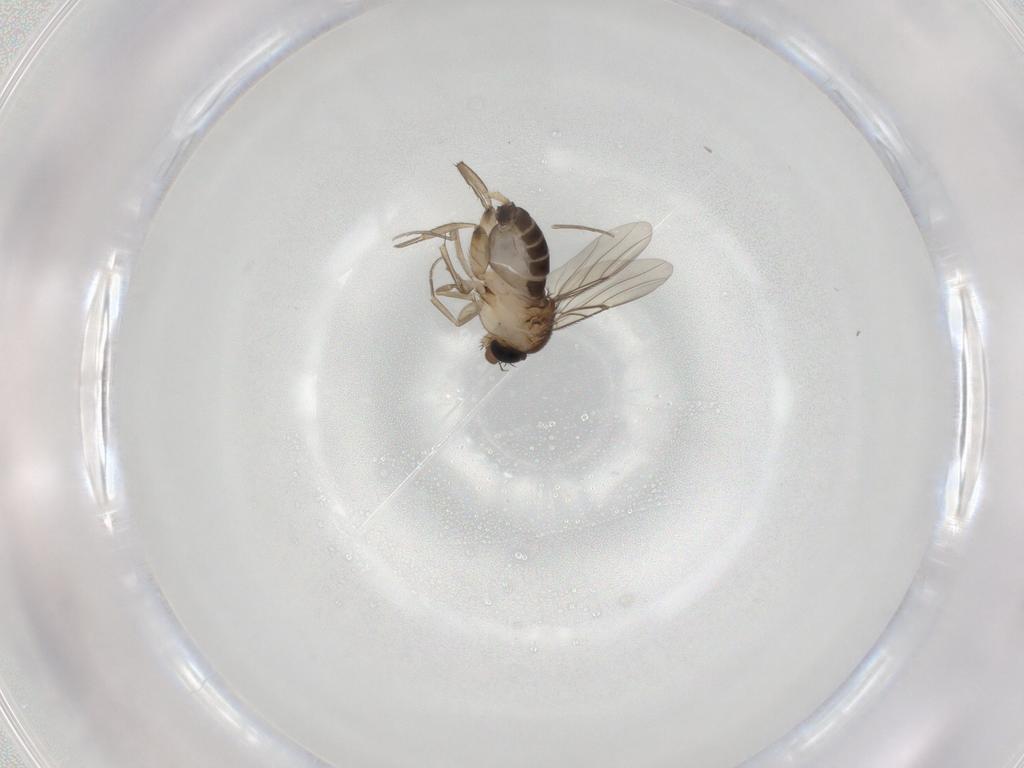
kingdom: Animalia
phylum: Arthropoda
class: Insecta
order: Diptera
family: Phoridae
